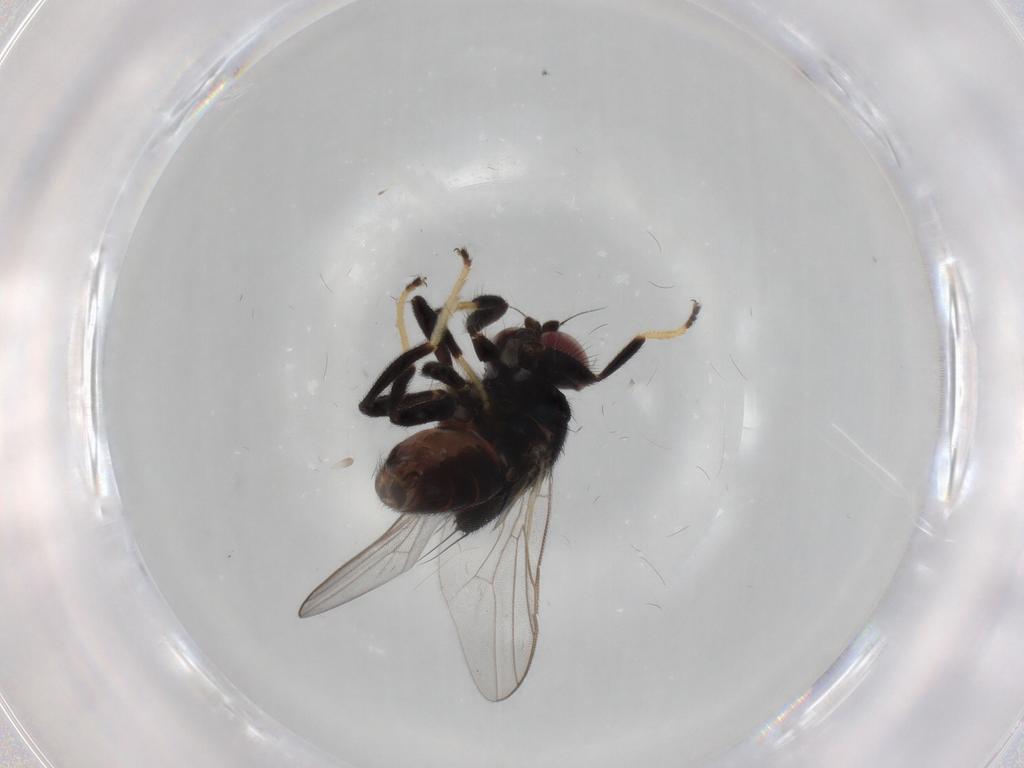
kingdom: Animalia
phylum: Arthropoda
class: Insecta
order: Diptera
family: Chloropidae
